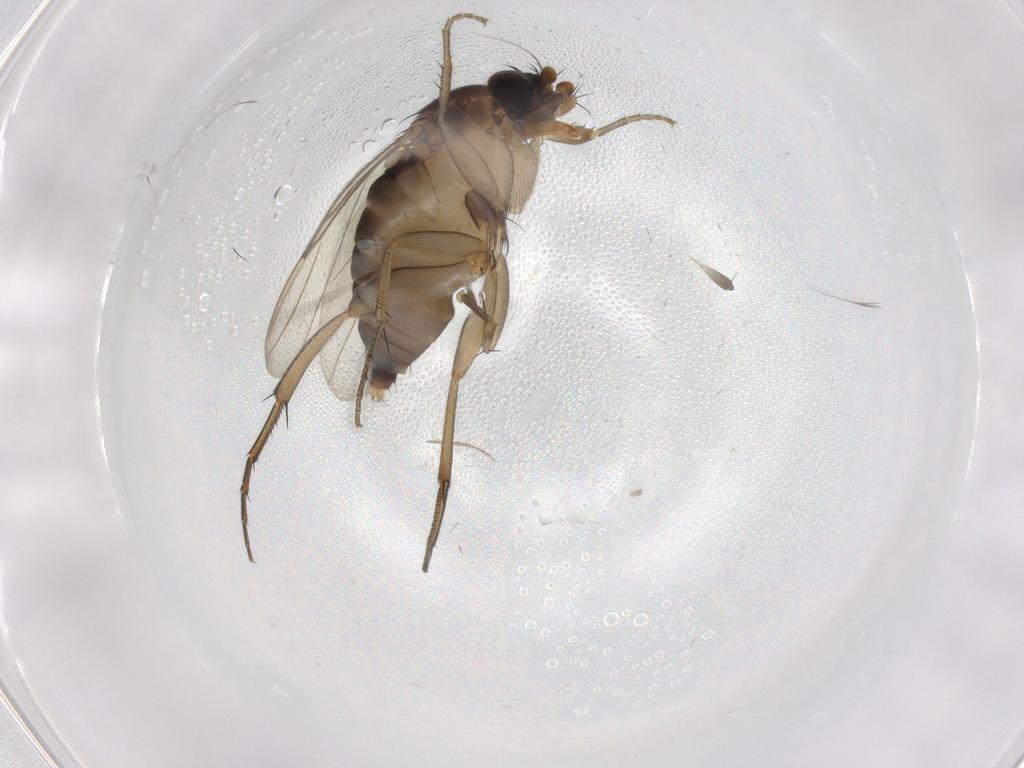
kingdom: Animalia
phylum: Arthropoda
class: Insecta
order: Diptera
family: Phoridae
